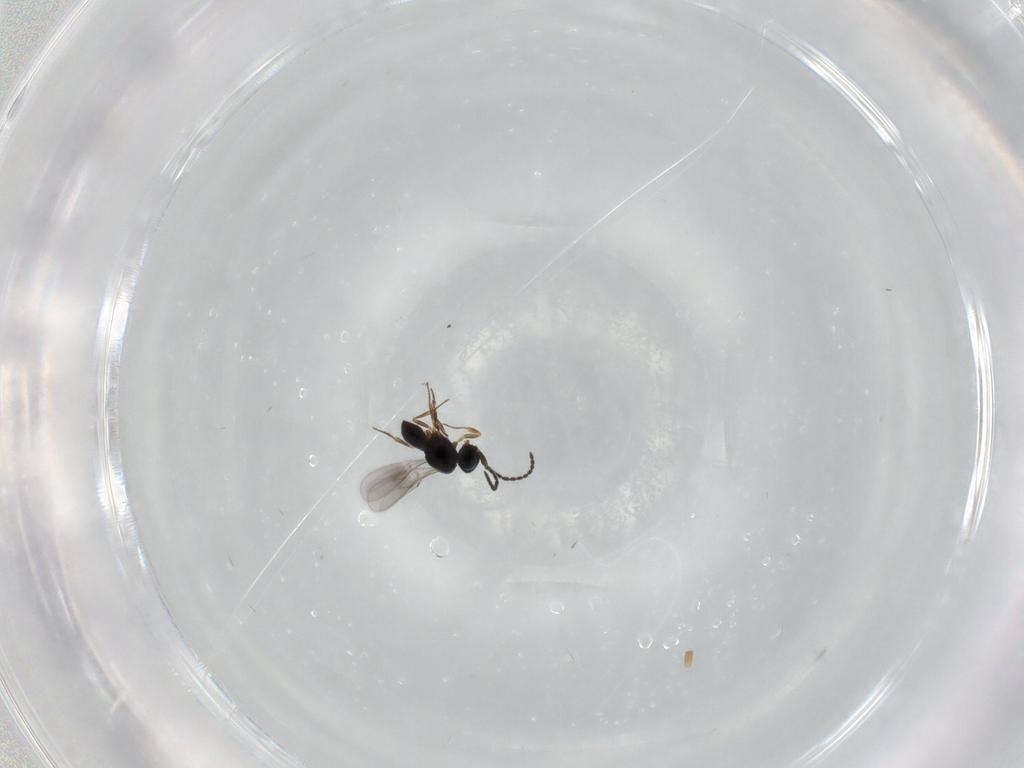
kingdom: Animalia
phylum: Arthropoda
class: Insecta
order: Hymenoptera
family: Scelionidae
